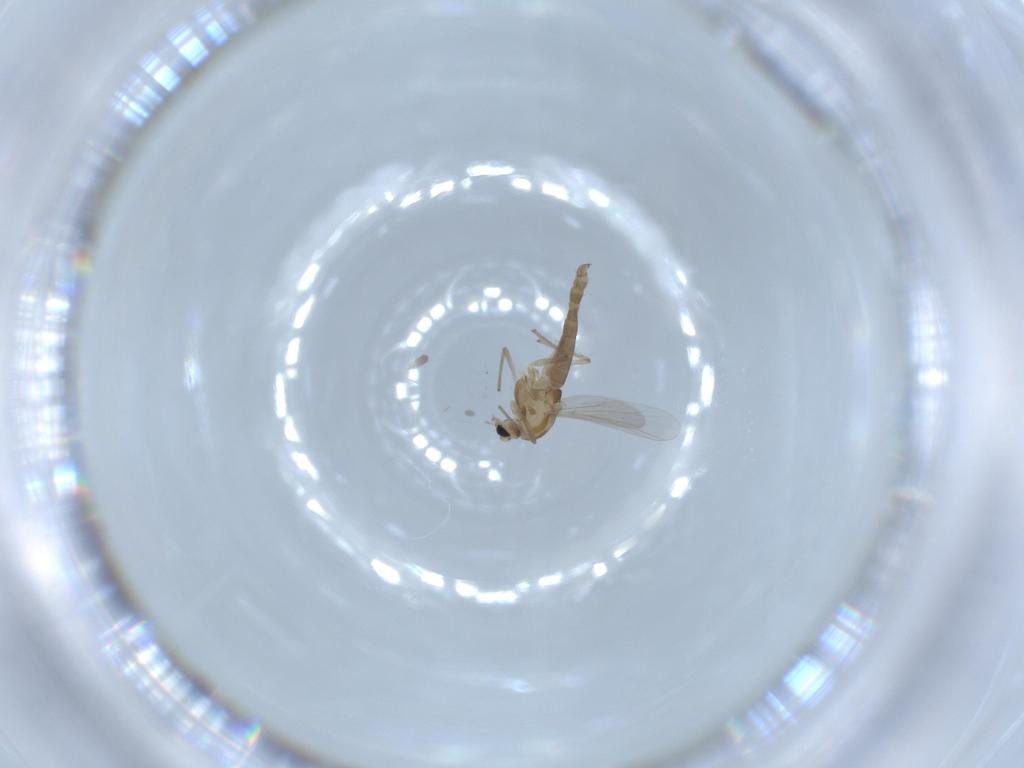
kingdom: Animalia
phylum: Arthropoda
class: Insecta
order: Diptera
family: Chironomidae
